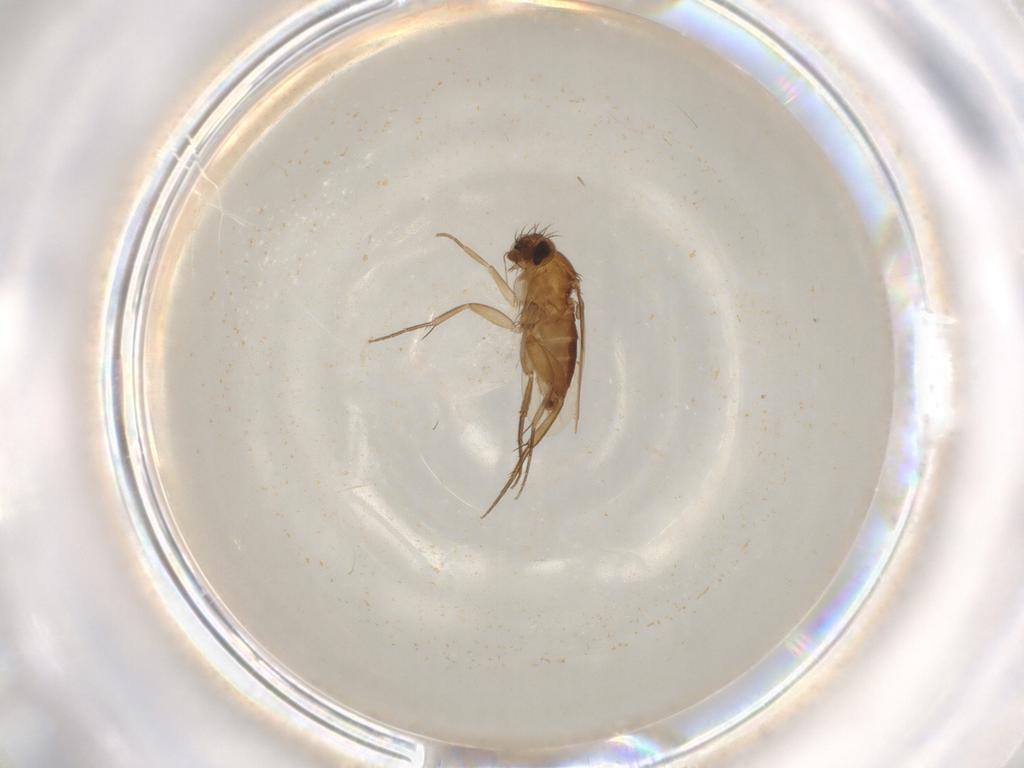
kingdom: Animalia
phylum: Arthropoda
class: Insecta
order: Diptera
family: Phoridae
